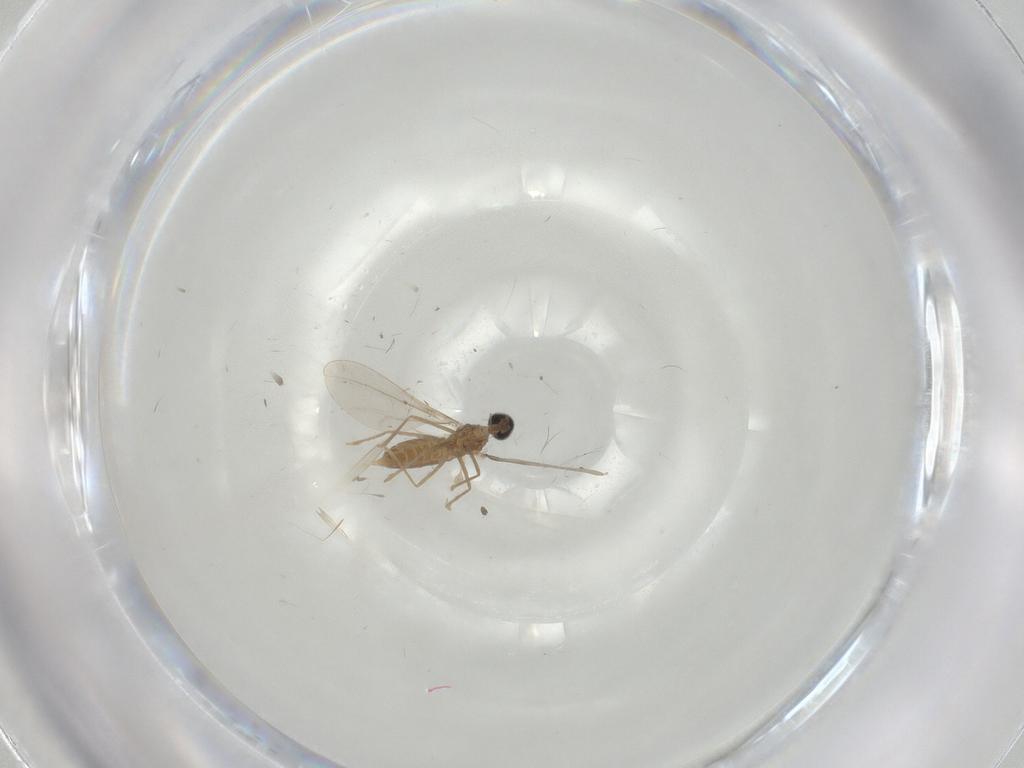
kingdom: Animalia
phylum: Arthropoda
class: Insecta
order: Diptera
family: Cecidomyiidae
